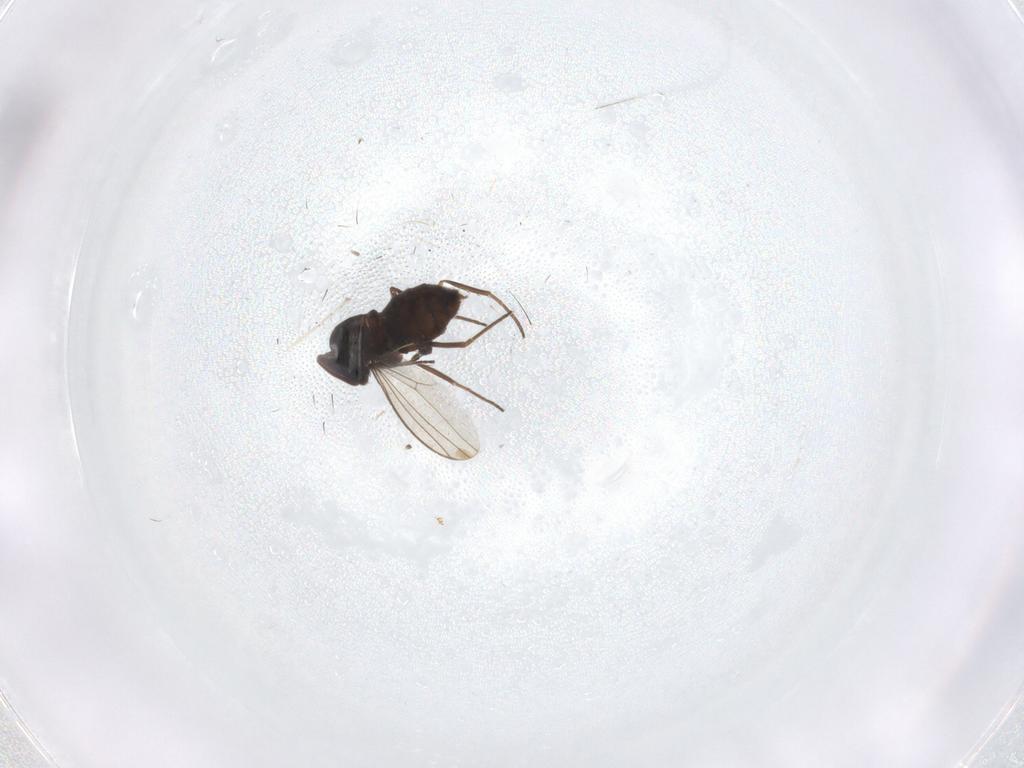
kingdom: Animalia
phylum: Arthropoda
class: Insecta
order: Diptera
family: Dolichopodidae
